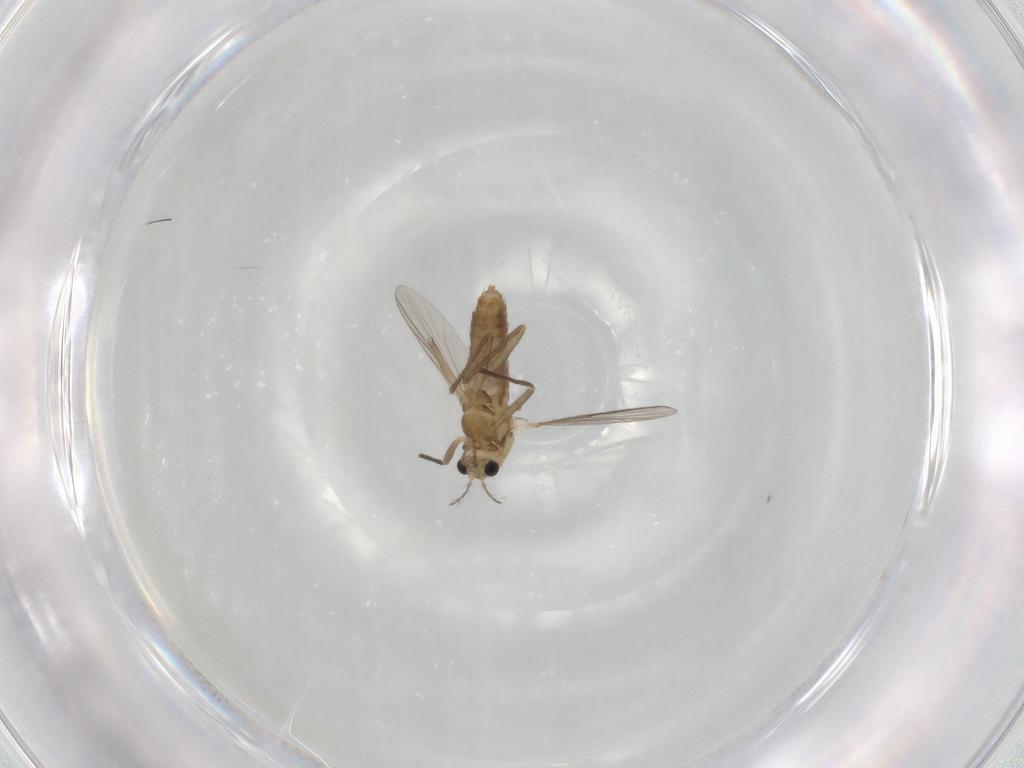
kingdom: Animalia
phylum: Arthropoda
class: Insecta
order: Diptera
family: Chironomidae
